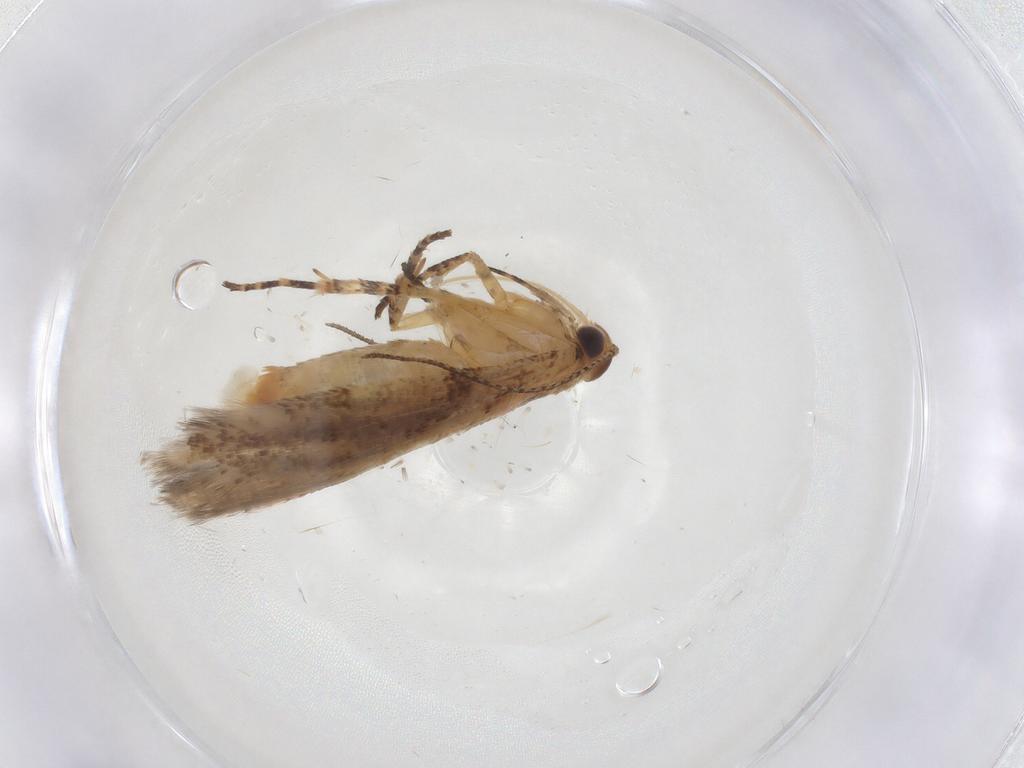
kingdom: Animalia
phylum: Arthropoda
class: Insecta
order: Lepidoptera
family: Gelechiidae
